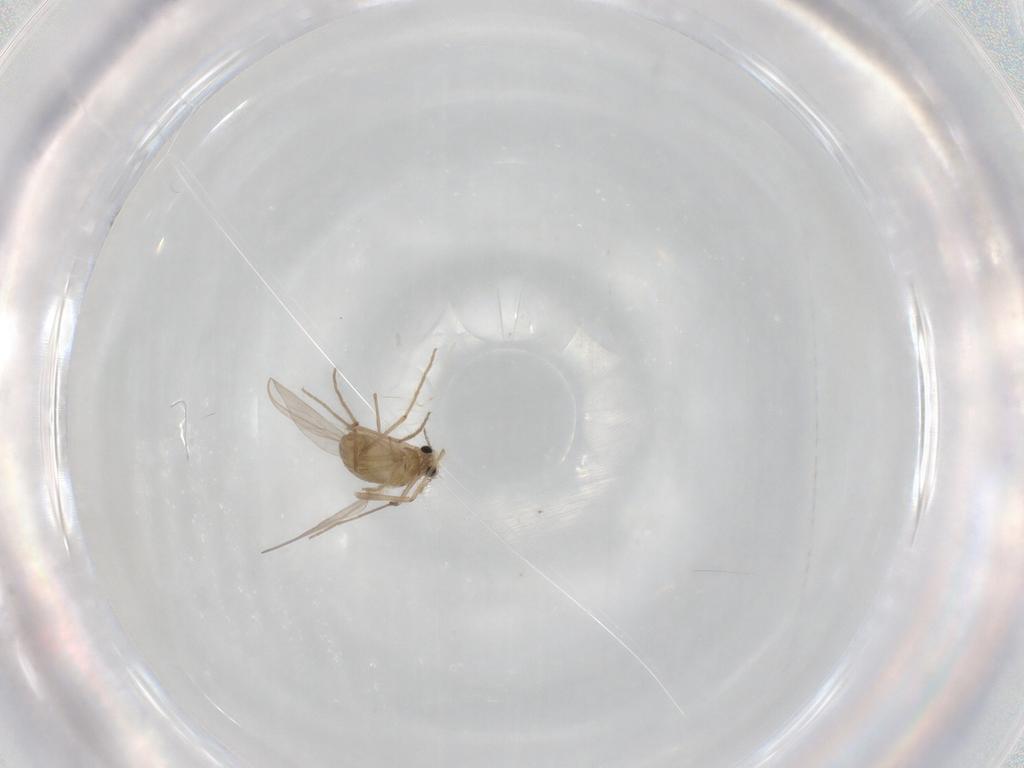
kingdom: Animalia
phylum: Arthropoda
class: Insecta
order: Diptera
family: Chironomidae
